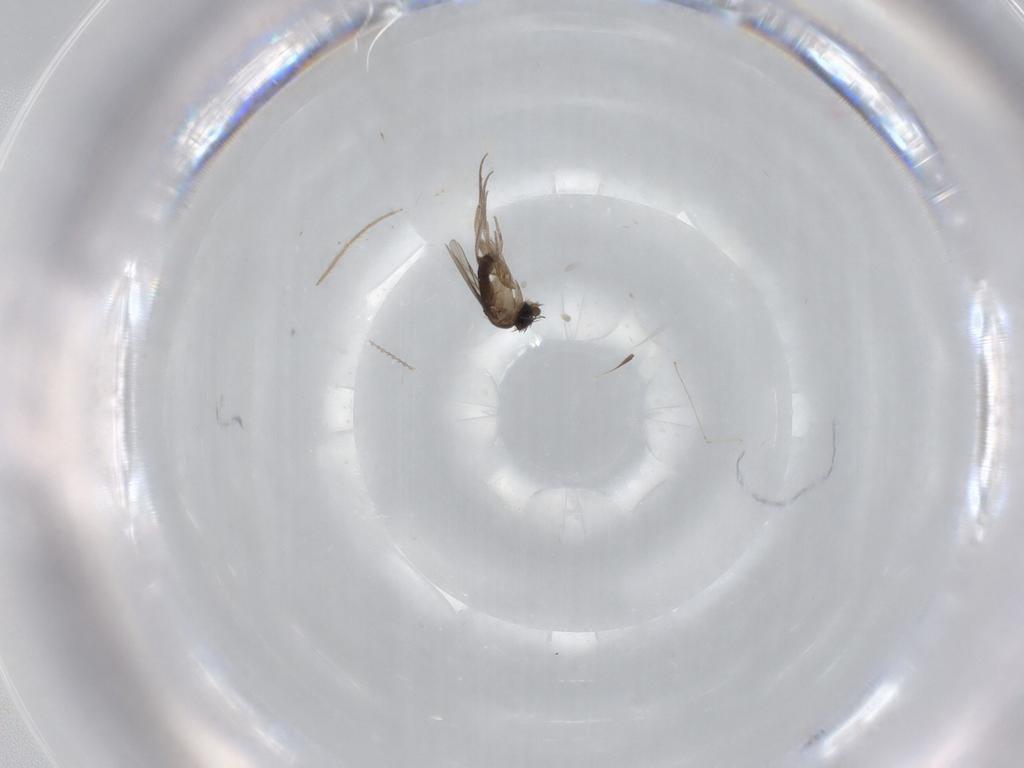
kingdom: Animalia
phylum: Arthropoda
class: Insecta
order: Diptera
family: Phoridae
